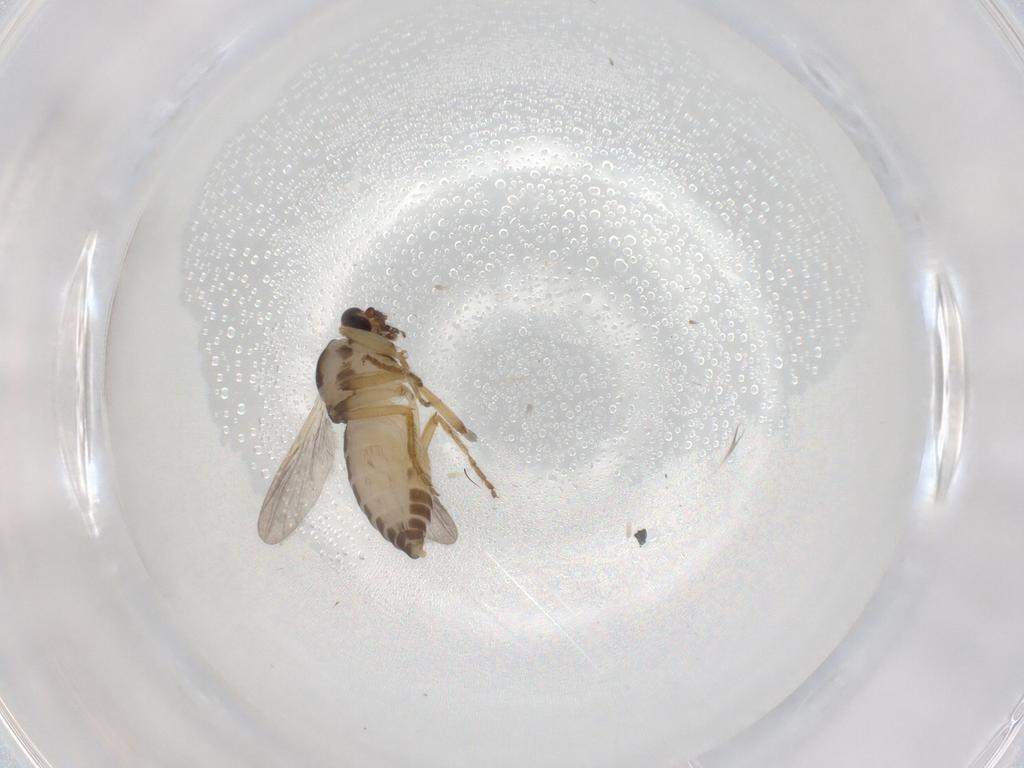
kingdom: Animalia
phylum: Arthropoda
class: Insecta
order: Diptera
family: Ceratopogonidae
